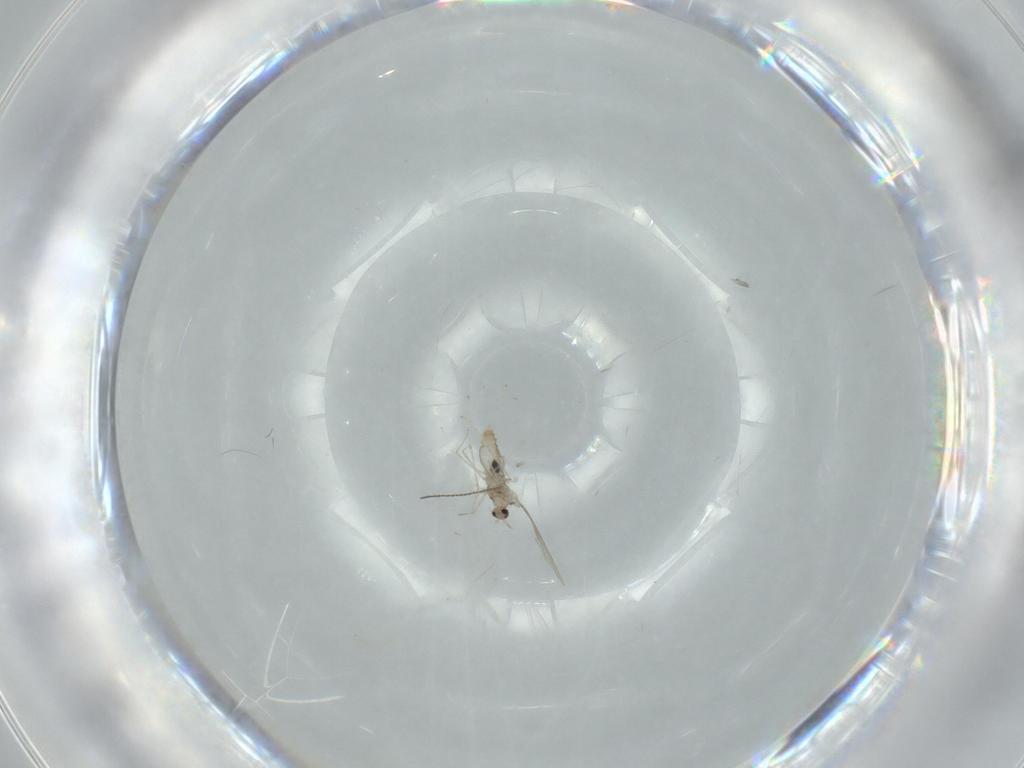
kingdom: Animalia
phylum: Arthropoda
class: Insecta
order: Diptera
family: Cecidomyiidae
